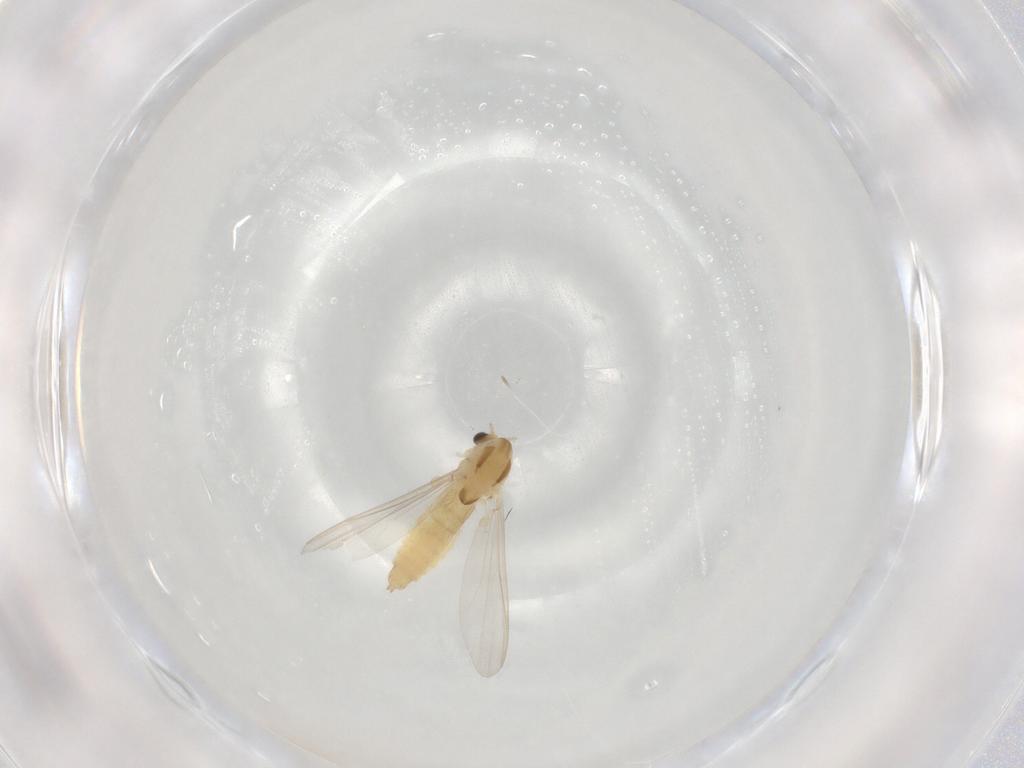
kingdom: Animalia
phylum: Arthropoda
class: Insecta
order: Diptera
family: Chironomidae
